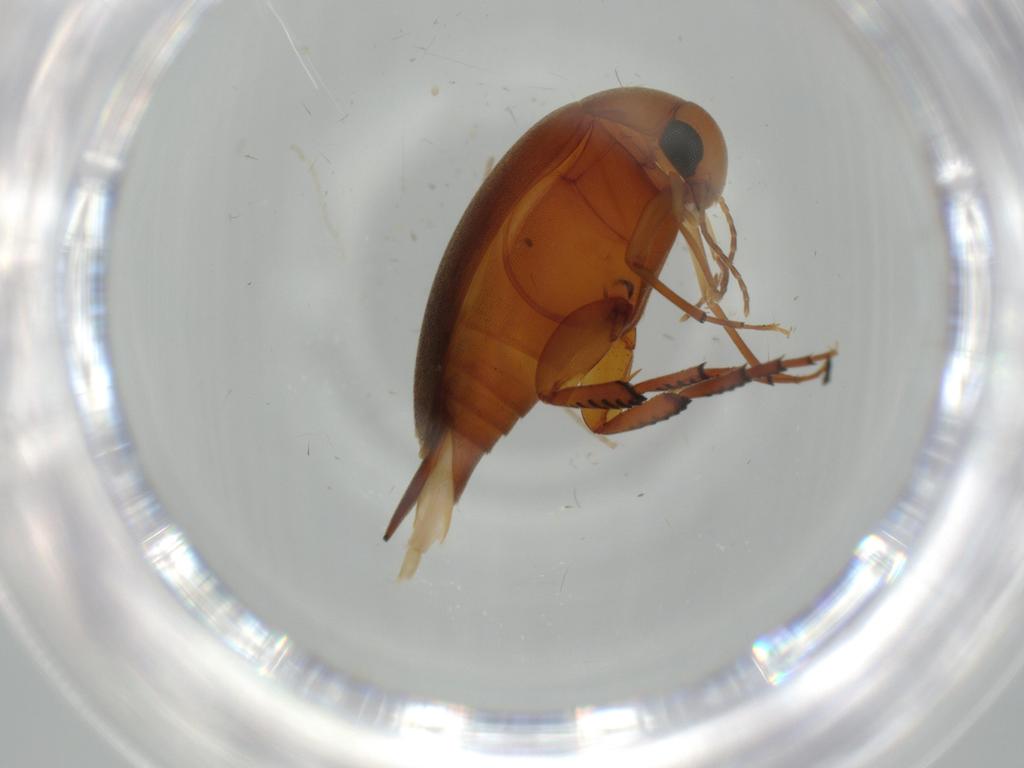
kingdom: Animalia
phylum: Arthropoda
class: Insecta
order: Coleoptera
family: Mordellidae
